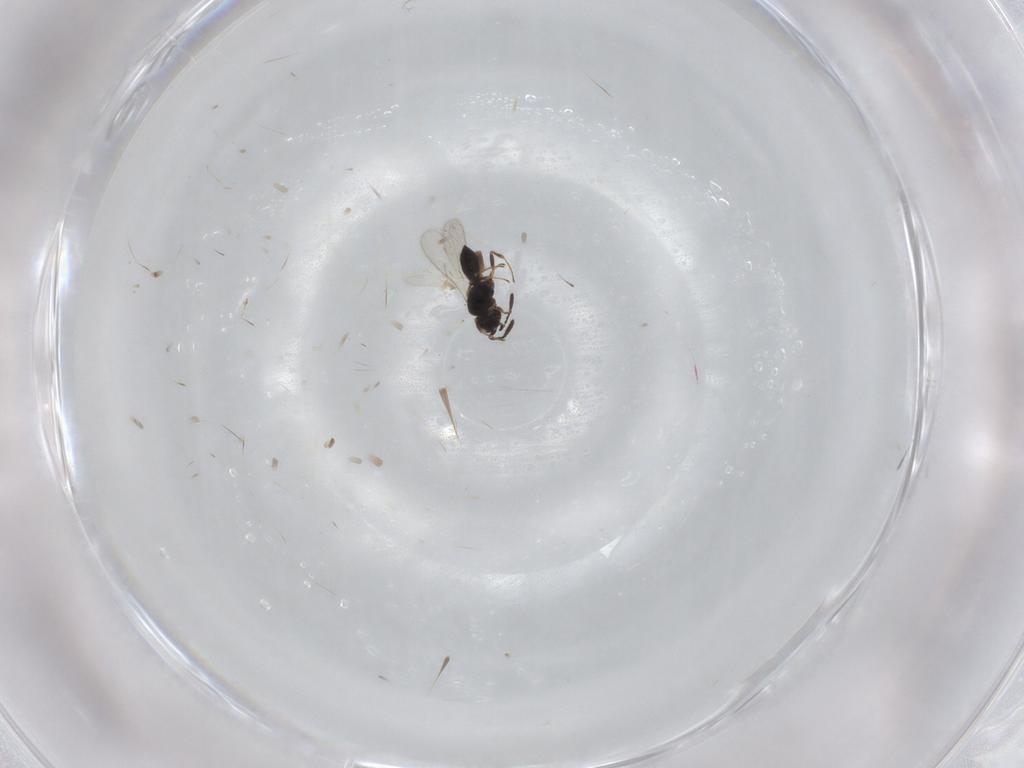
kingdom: Animalia
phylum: Arthropoda
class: Insecta
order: Hymenoptera
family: Scelionidae
